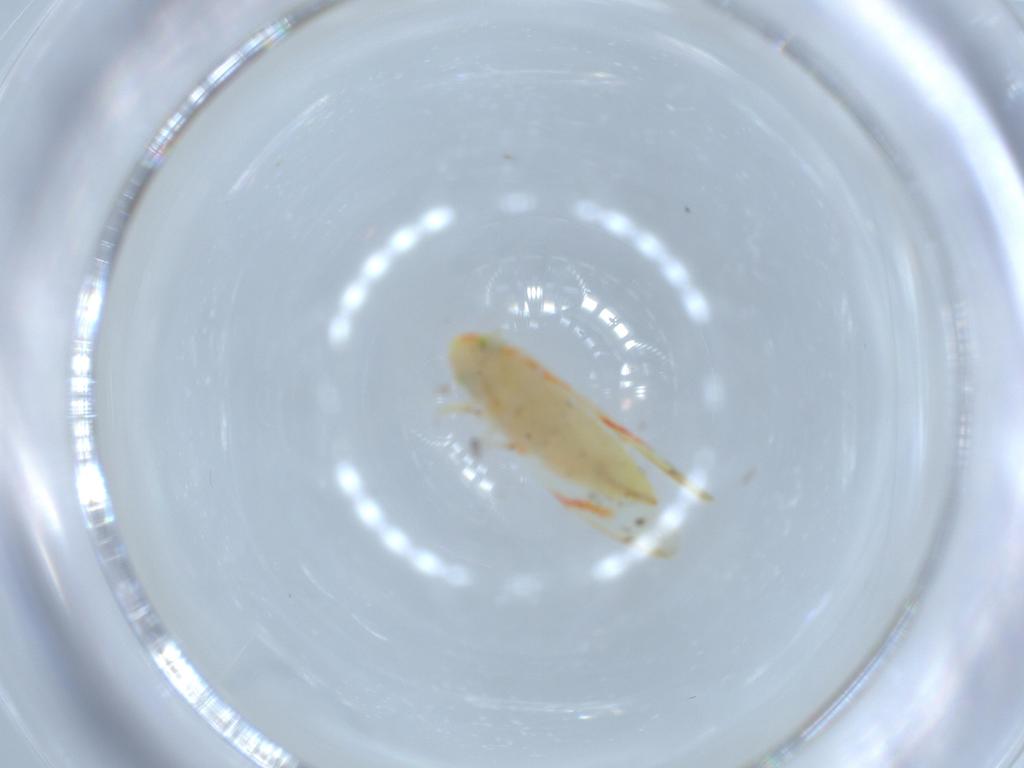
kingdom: Animalia
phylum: Arthropoda
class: Insecta
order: Hemiptera
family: Cicadellidae
